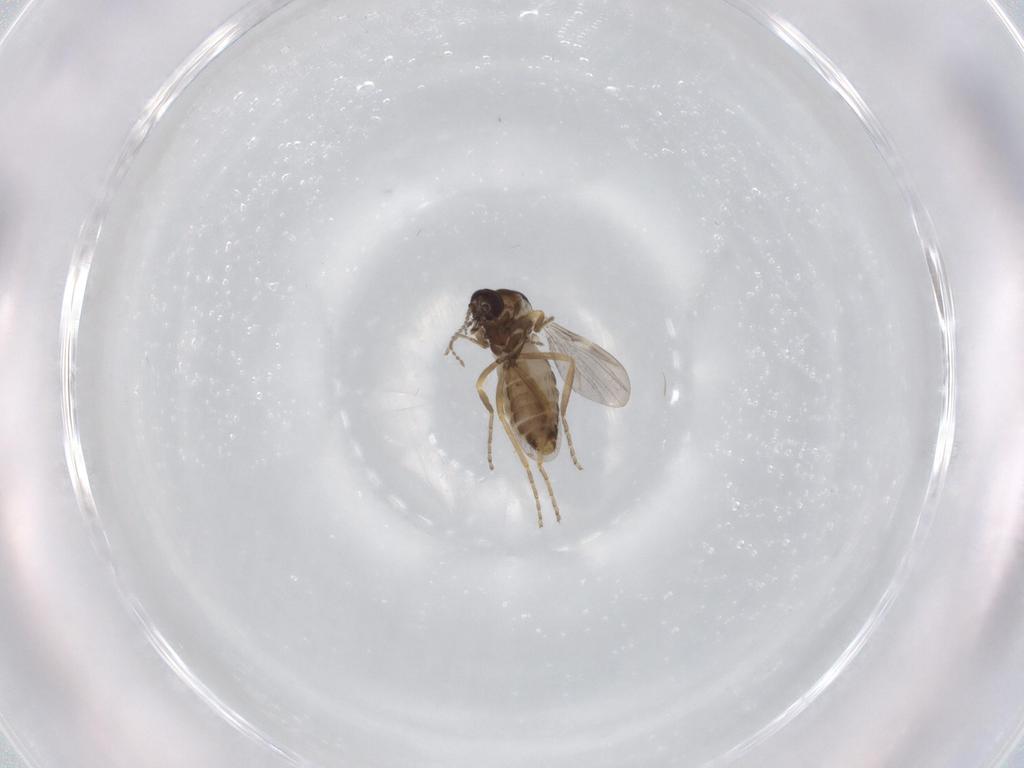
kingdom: Animalia
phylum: Arthropoda
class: Insecta
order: Diptera
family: Ceratopogonidae
